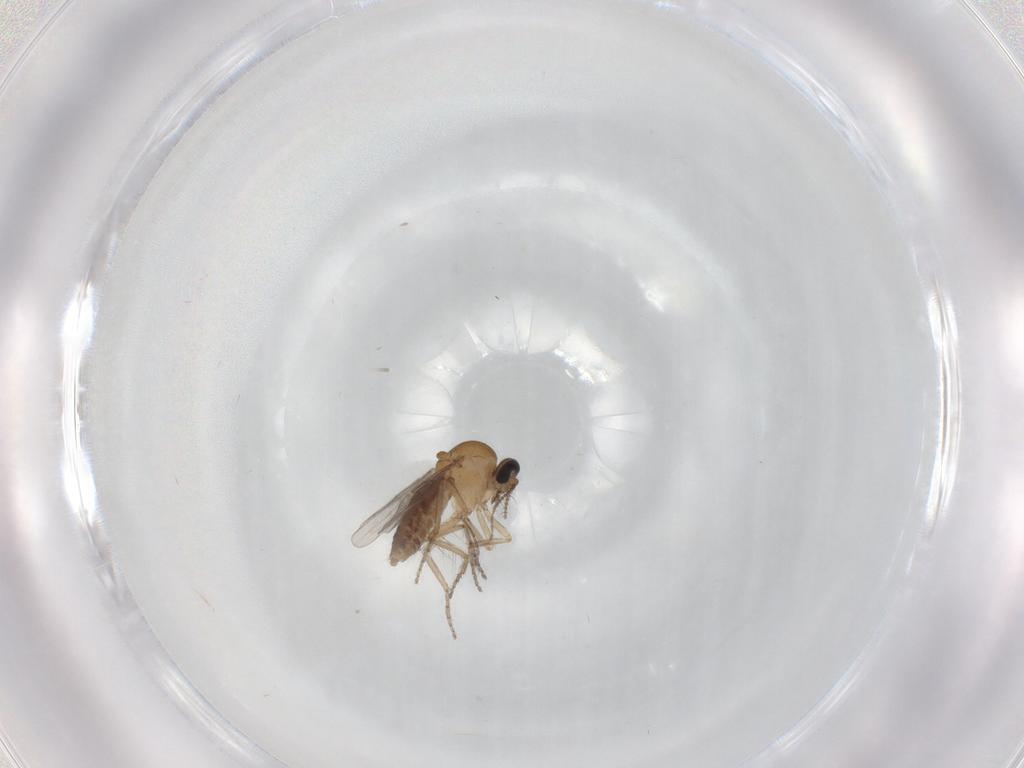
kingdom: Animalia
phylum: Arthropoda
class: Insecta
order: Diptera
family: Ceratopogonidae
